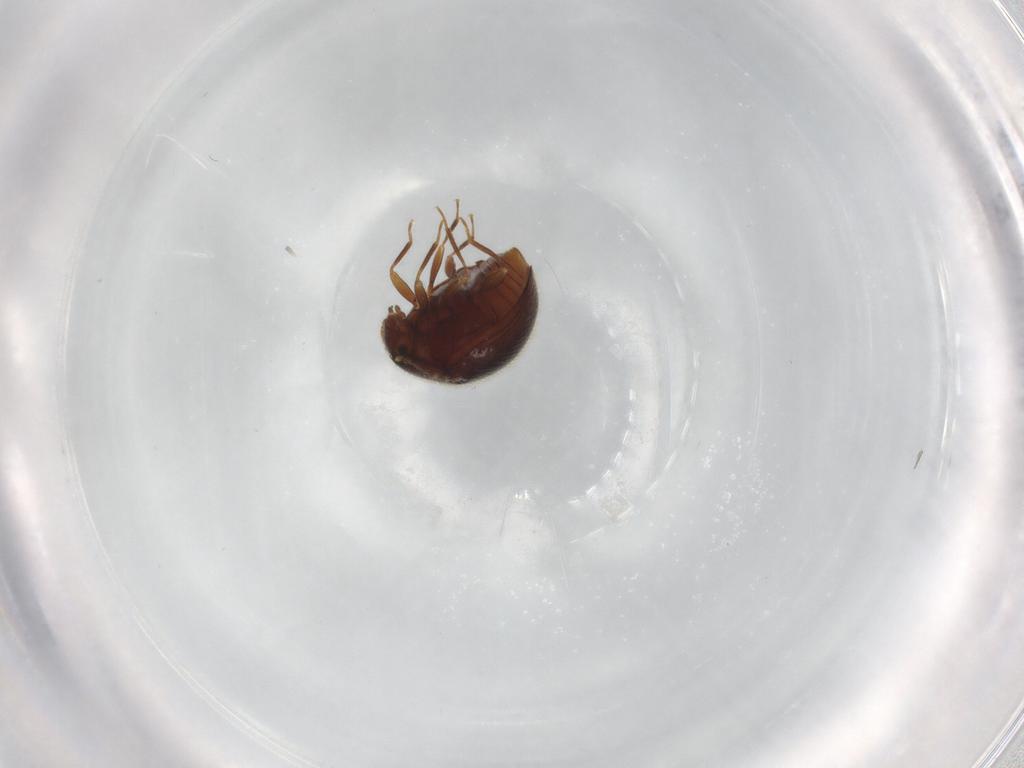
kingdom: Animalia
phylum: Arthropoda
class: Insecta
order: Coleoptera
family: Anamorphidae
